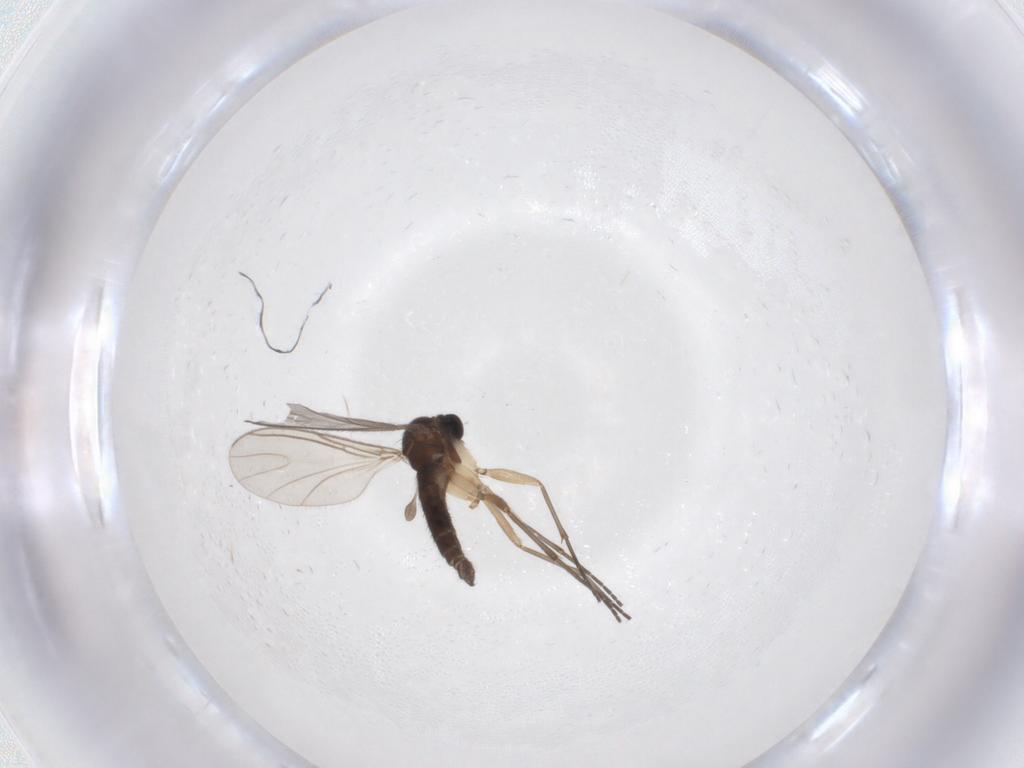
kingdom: Animalia
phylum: Arthropoda
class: Insecta
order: Diptera
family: Sciaridae
